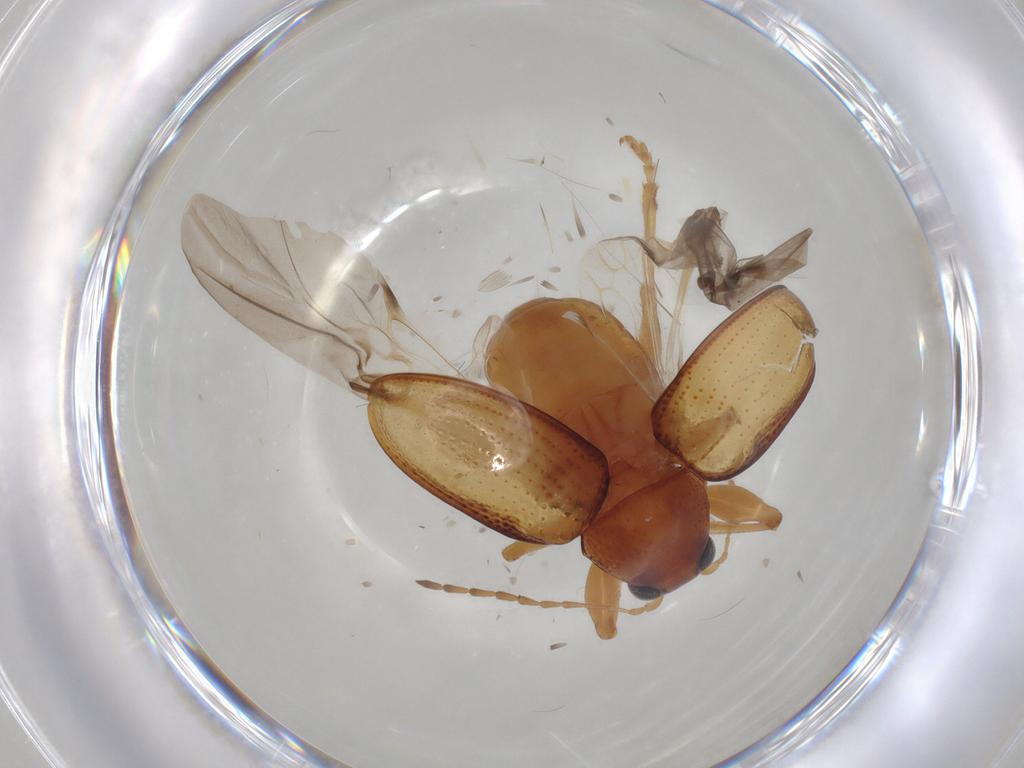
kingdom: Animalia
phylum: Arthropoda
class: Insecta
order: Coleoptera
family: Chrysomelidae
